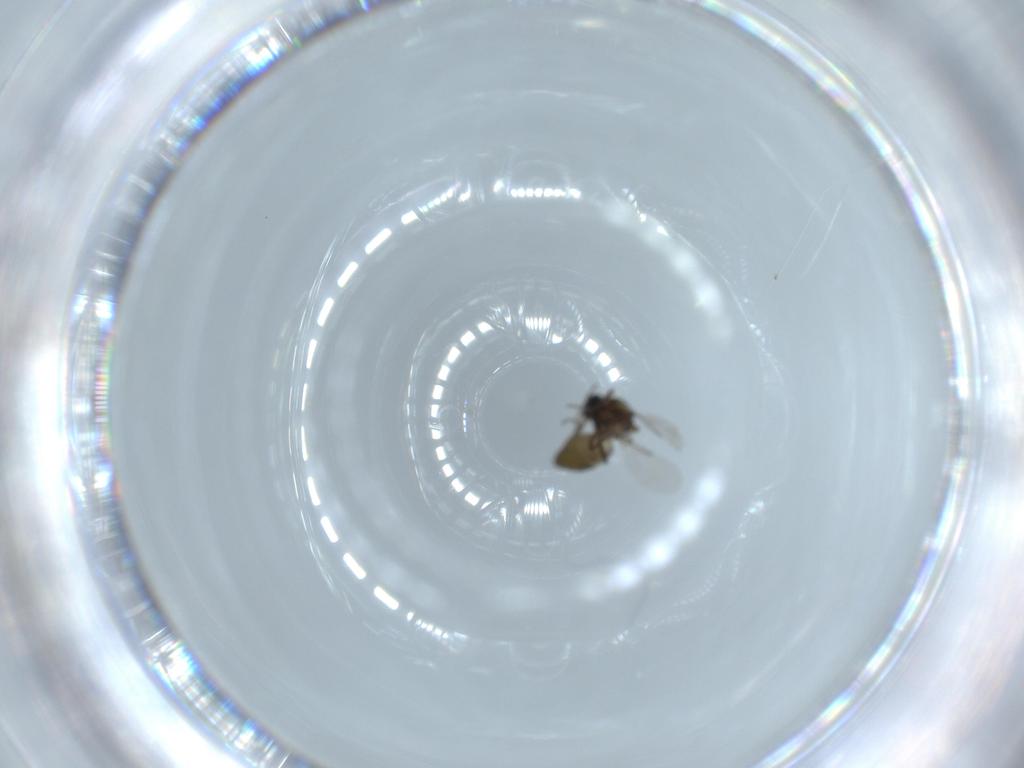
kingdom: Animalia
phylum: Arthropoda
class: Insecta
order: Diptera
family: Ceratopogonidae
